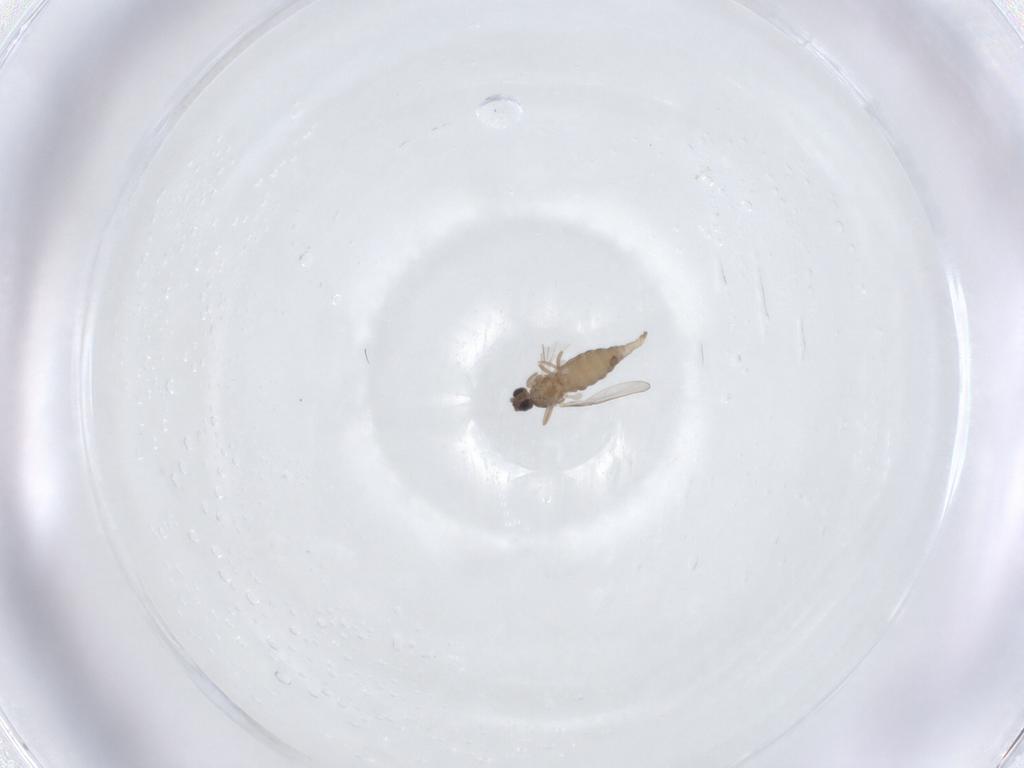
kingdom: Animalia
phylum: Arthropoda
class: Insecta
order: Diptera
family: Cecidomyiidae
